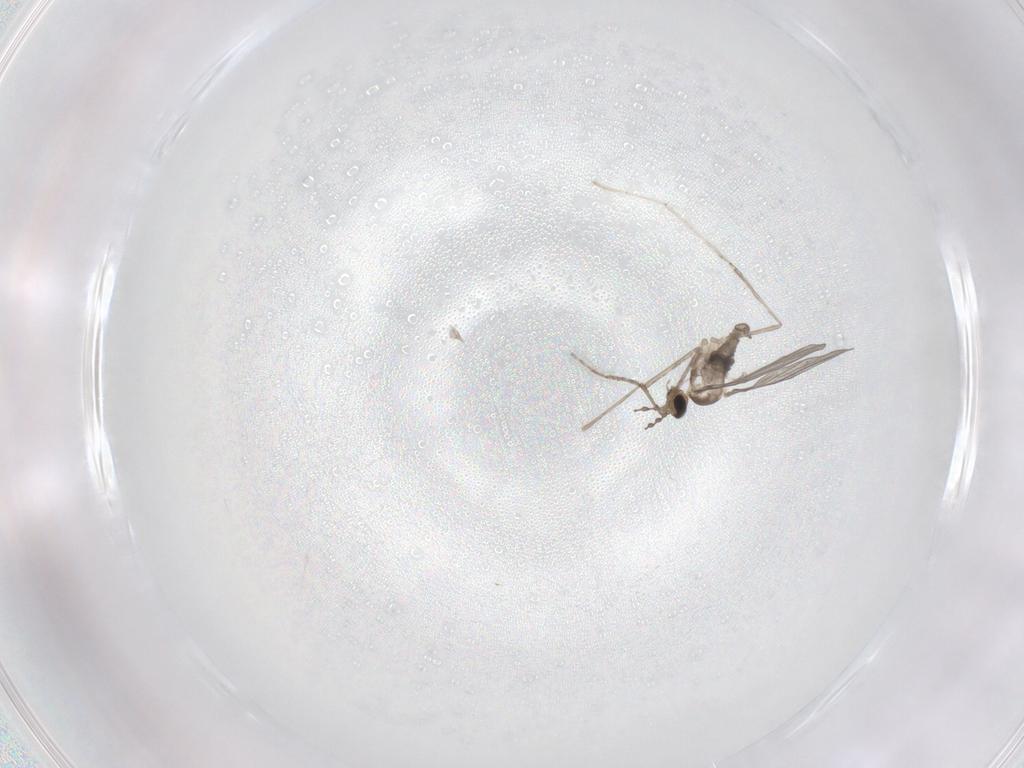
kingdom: Animalia
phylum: Arthropoda
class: Insecta
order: Diptera
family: Cecidomyiidae
